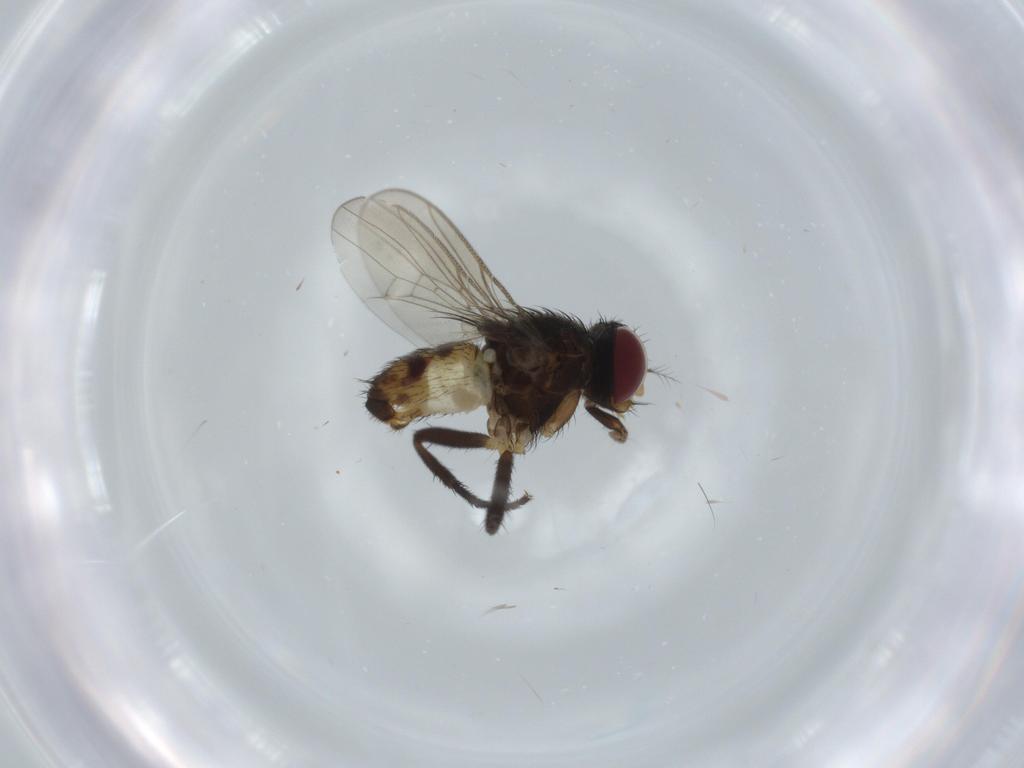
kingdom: Animalia
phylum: Arthropoda
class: Insecta
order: Diptera
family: Anthomyiidae
